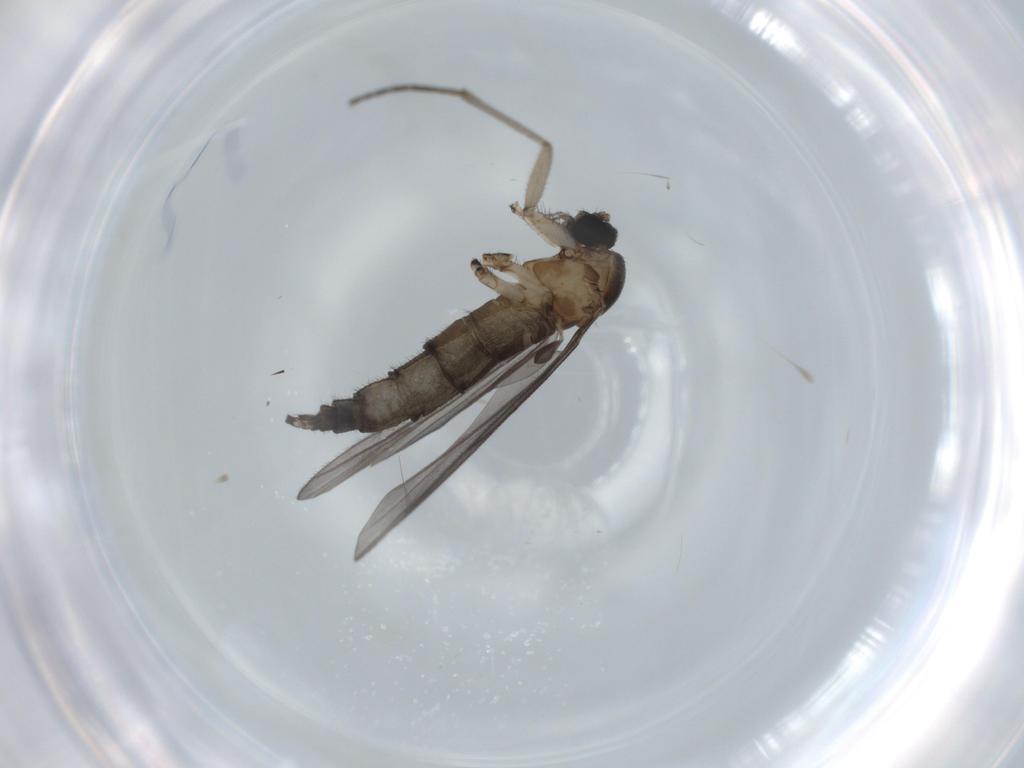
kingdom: Animalia
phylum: Arthropoda
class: Insecta
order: Diptera
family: Sciaridae
